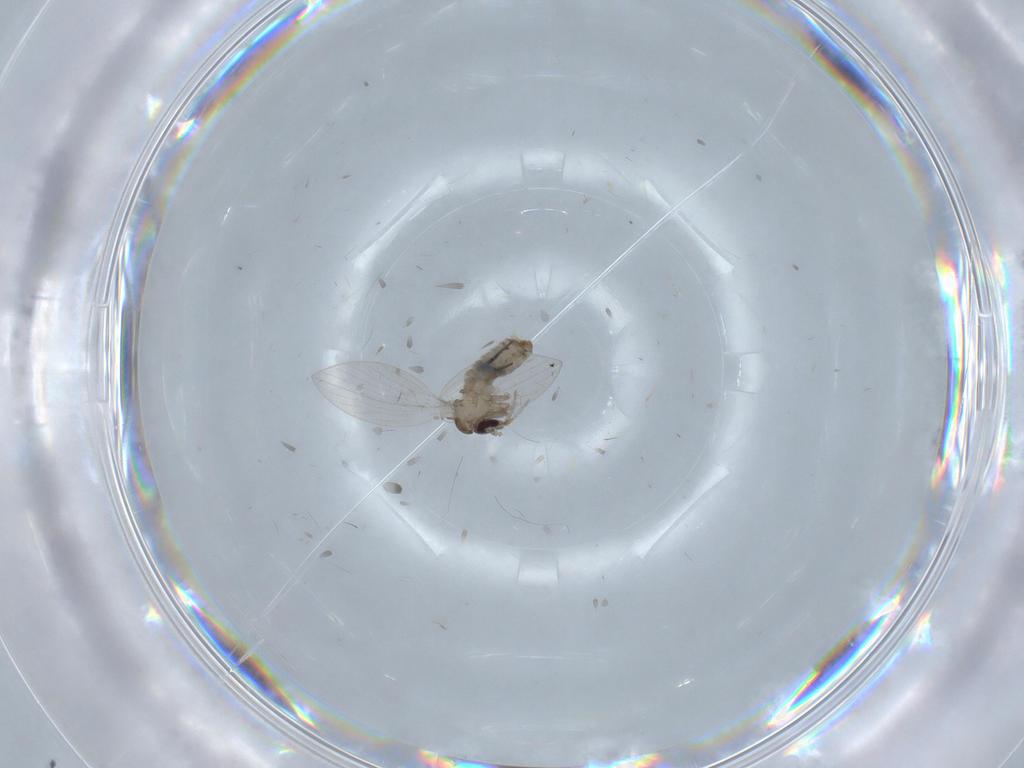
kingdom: Animalia
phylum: Arthropoda
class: Insecta
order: Diptera
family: Psychodidae
